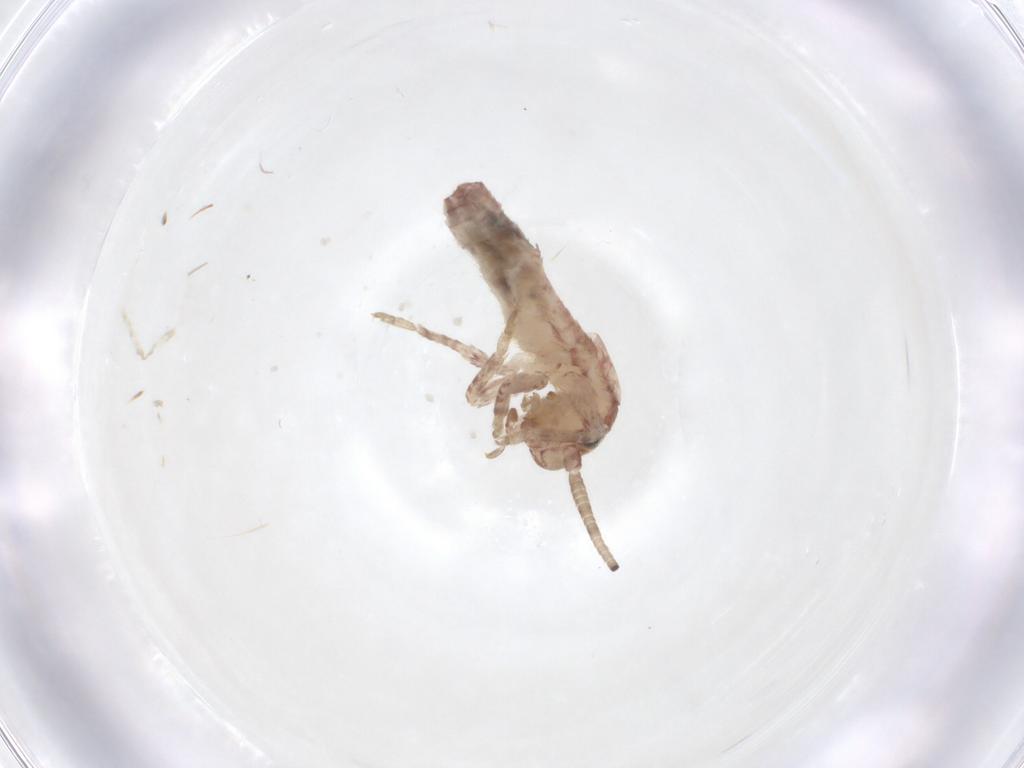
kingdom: Animalia
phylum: Arthropoda
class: Insecta
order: Orthoptera
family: Mogoplistidae
